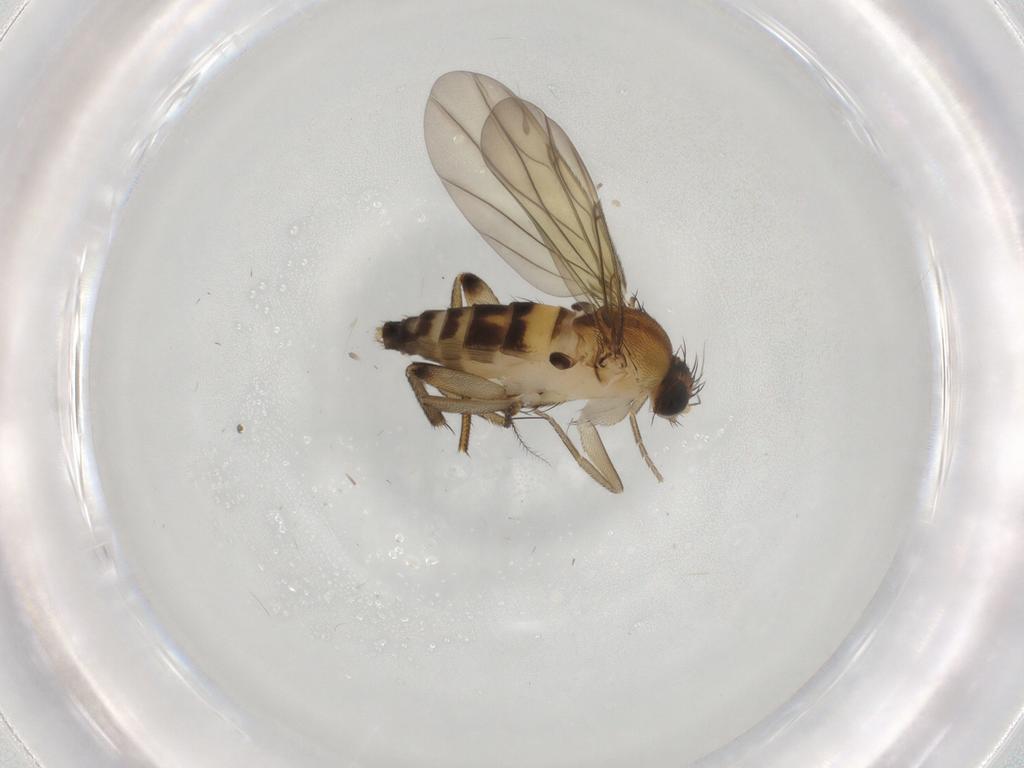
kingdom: Animalia
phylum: Arthropoda
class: Insecta
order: Diptera
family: Phoridae
